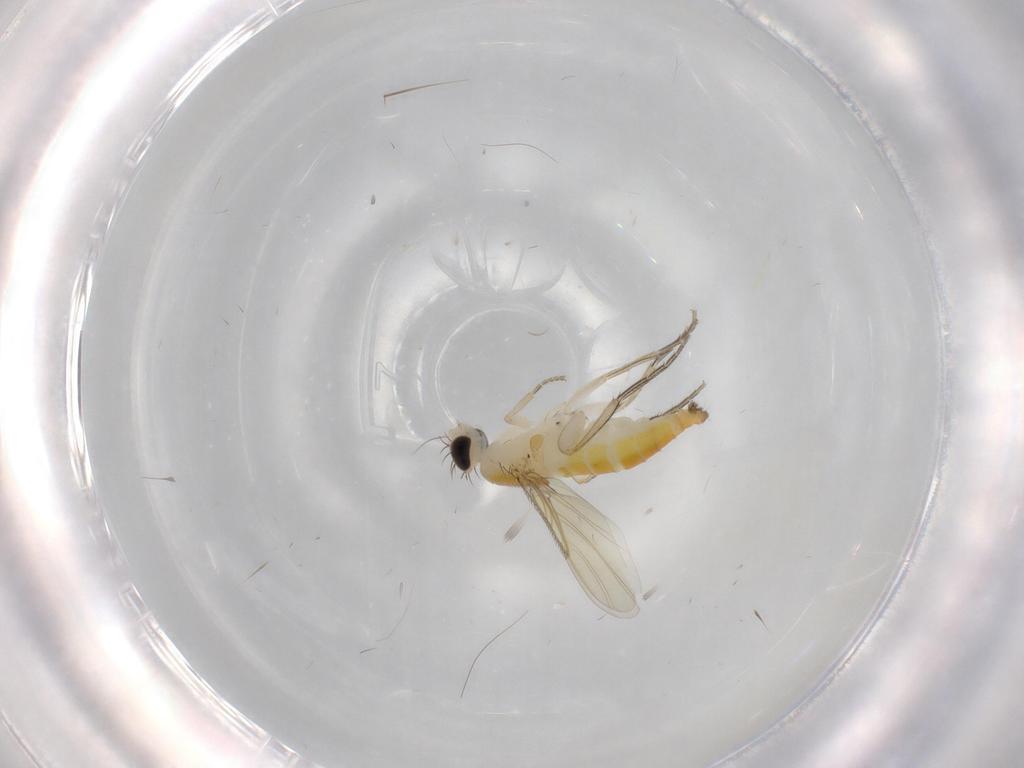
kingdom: Animalia
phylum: Arthropoda
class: Insecta
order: Diptera
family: Phoridae
